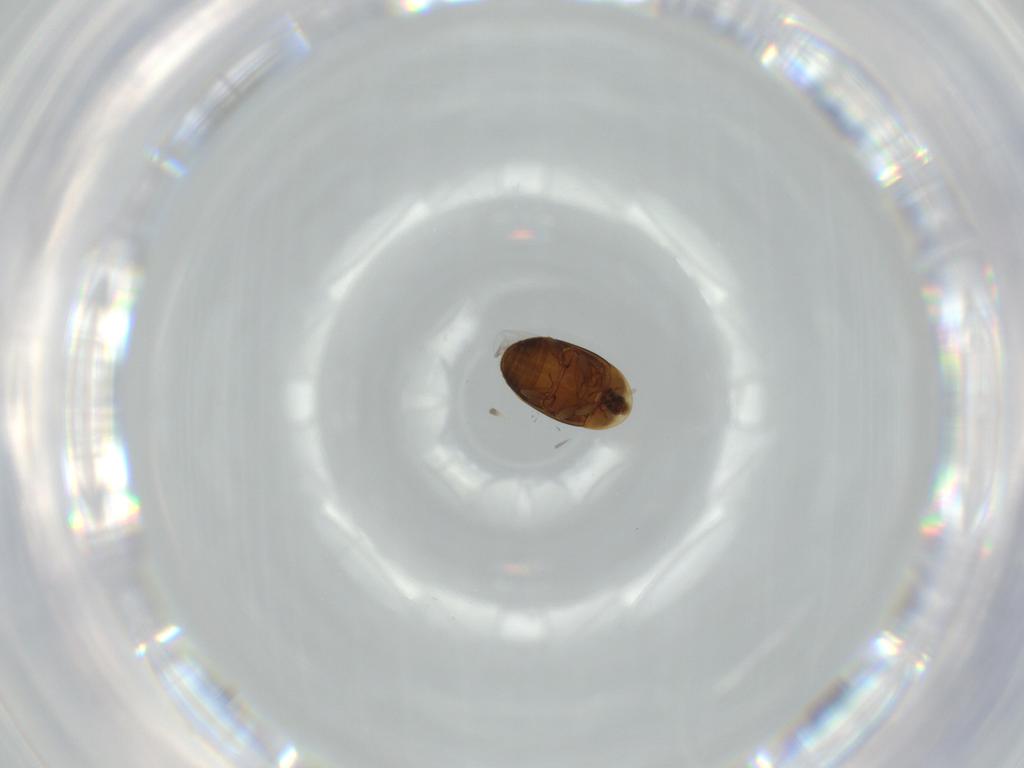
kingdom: Animalia
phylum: Arthropoda
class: Insecta
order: Coleoptera
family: Corylophidae
